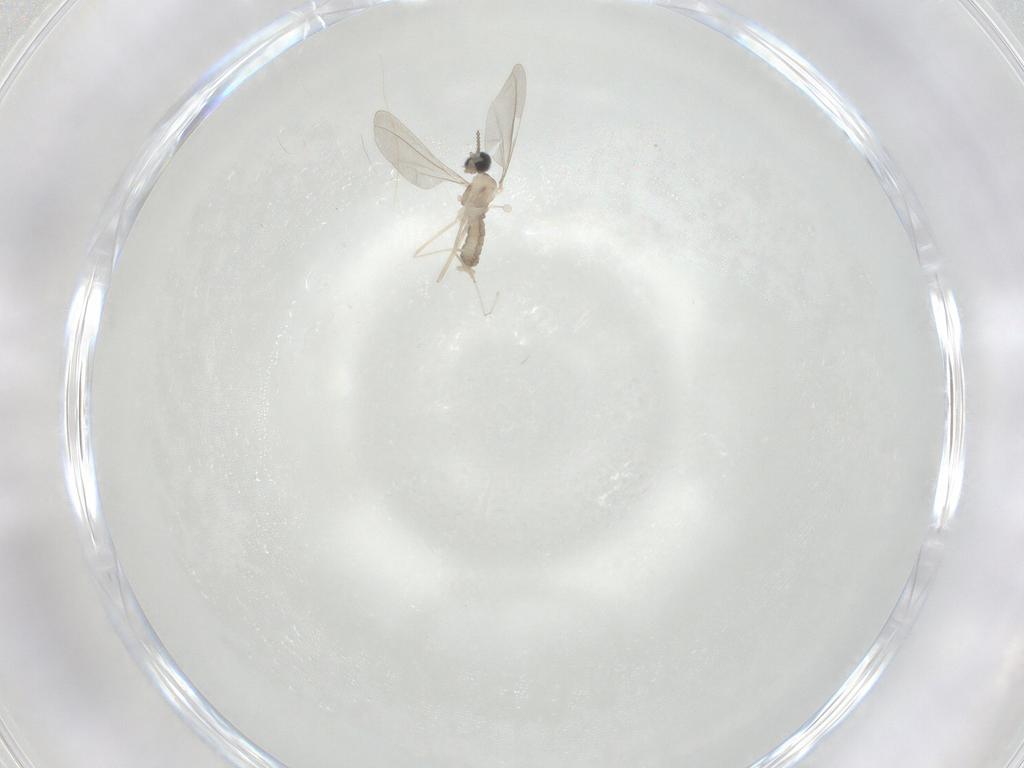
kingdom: Animalia
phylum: Arthropoda
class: Insecta
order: Diptera
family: Cecidomyiidae
